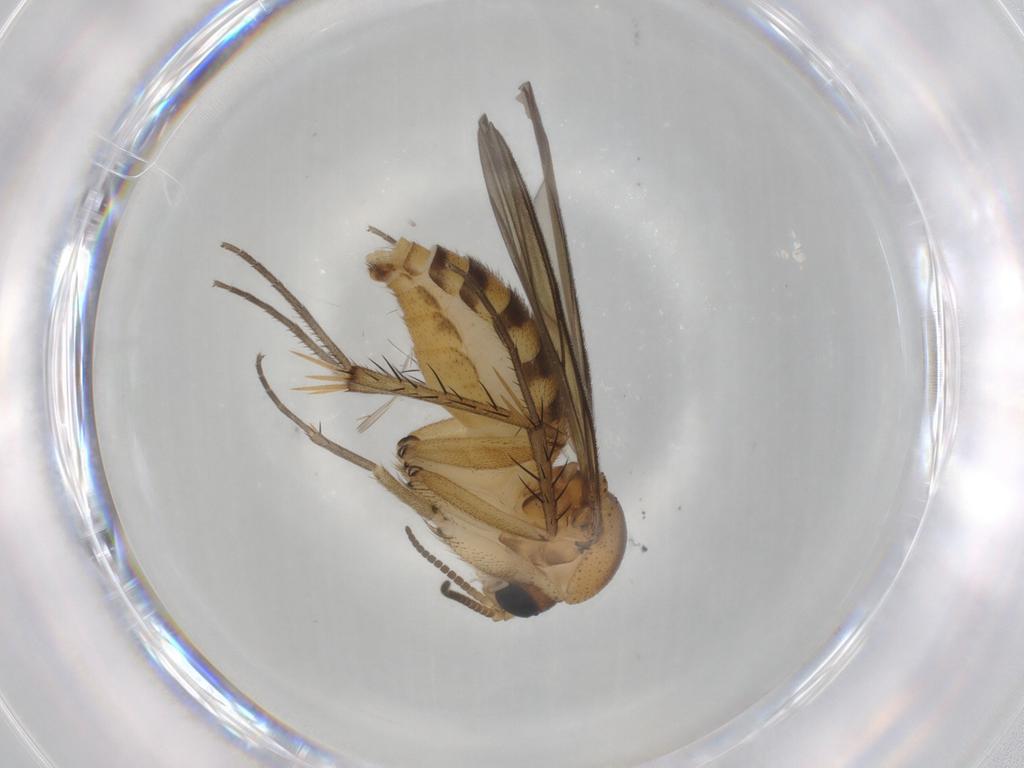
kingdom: Animalia
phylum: Arthropoda
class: Insecta
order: Diptera
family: Mycetophilidae
